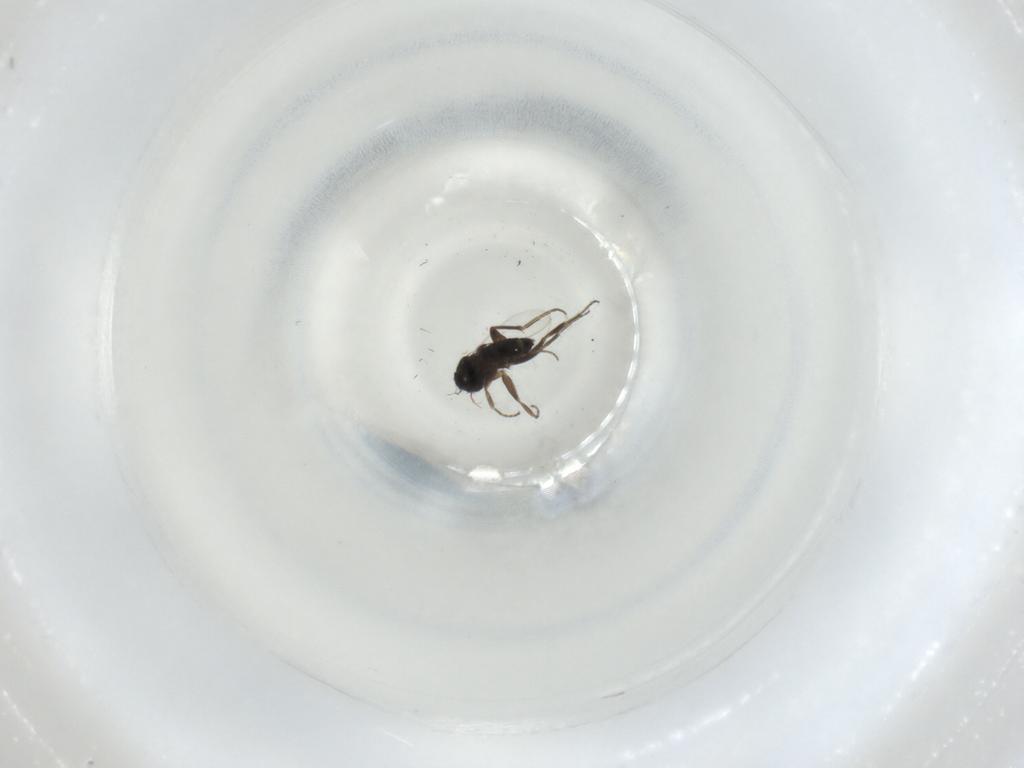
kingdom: Animalia
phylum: Arthropoda
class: Insecta
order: Diptera
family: Phoridae
